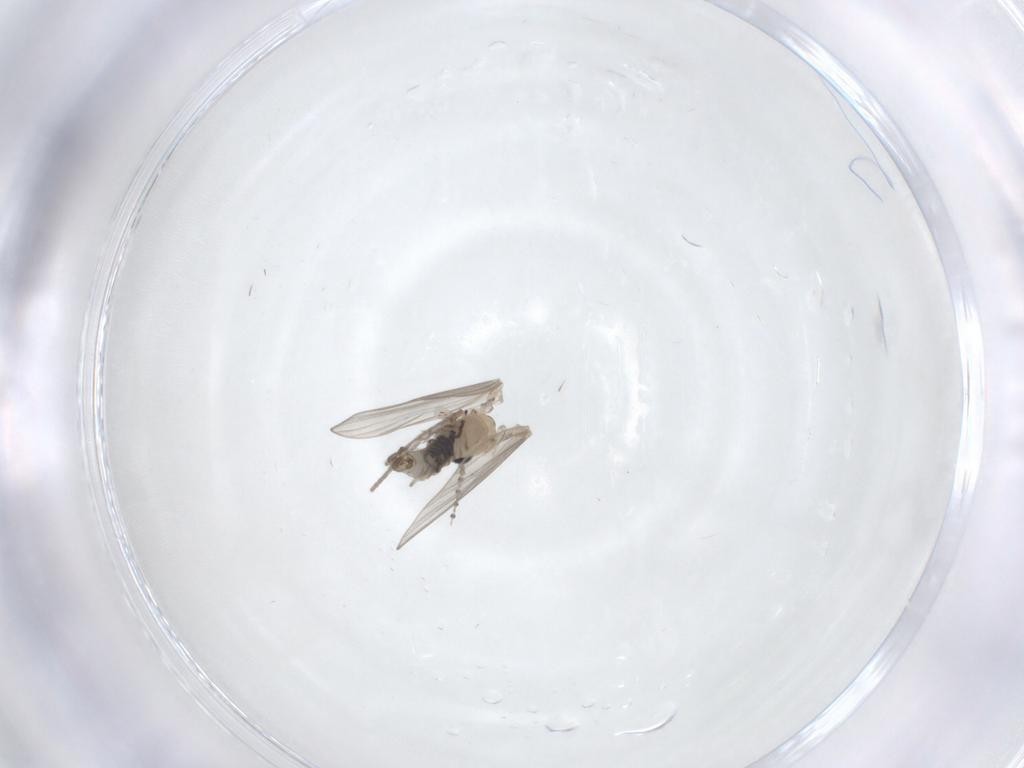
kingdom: Animalia
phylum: Arthropoda
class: Insecta
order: Diptera
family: Psychodidae
